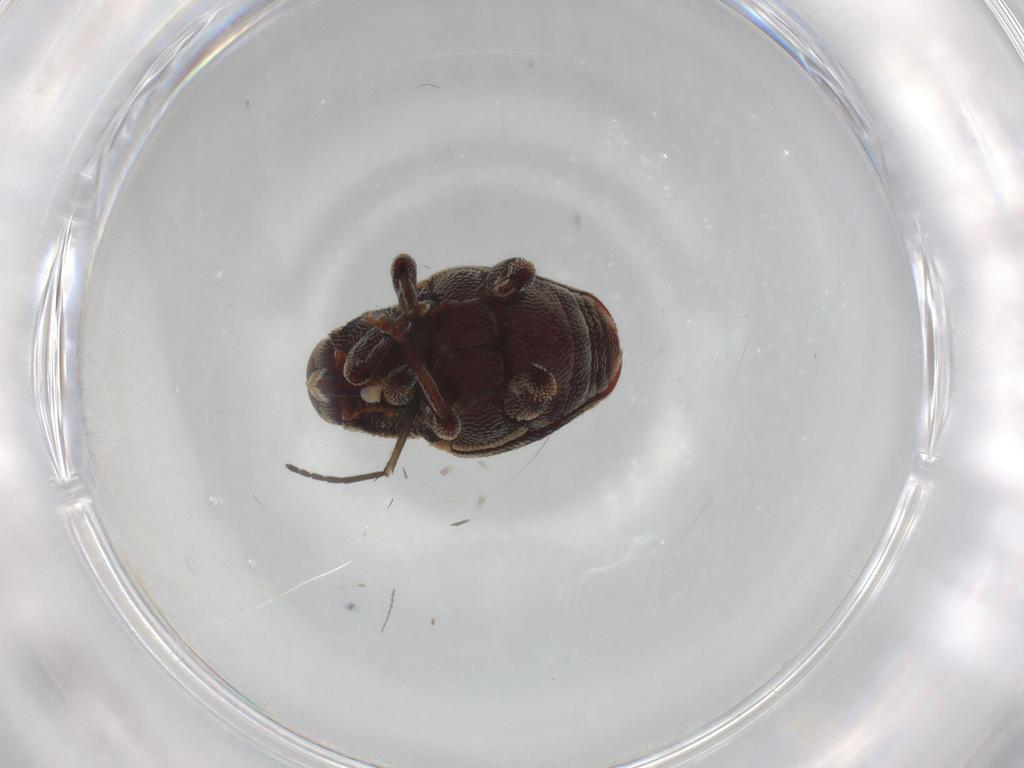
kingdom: Animalia
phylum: Arthropoda
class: Insecta
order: Coleoptera
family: Curculionidae
